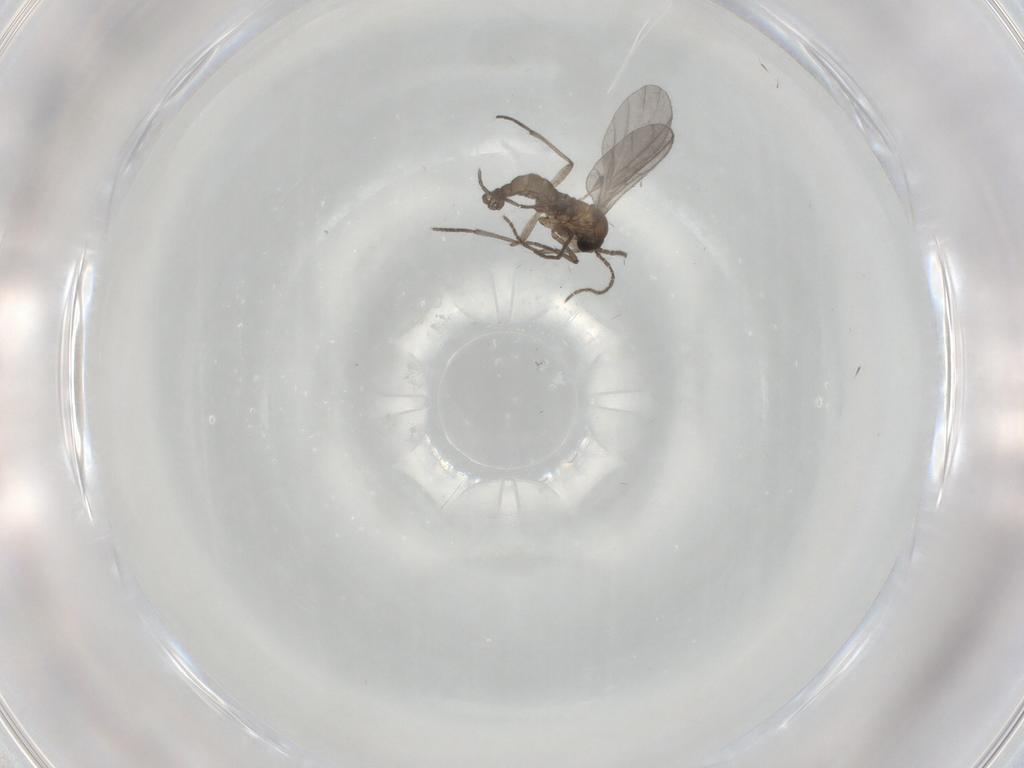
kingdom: Animalia
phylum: Arthropoda
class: Insecta
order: Diptera
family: Sciaridae
